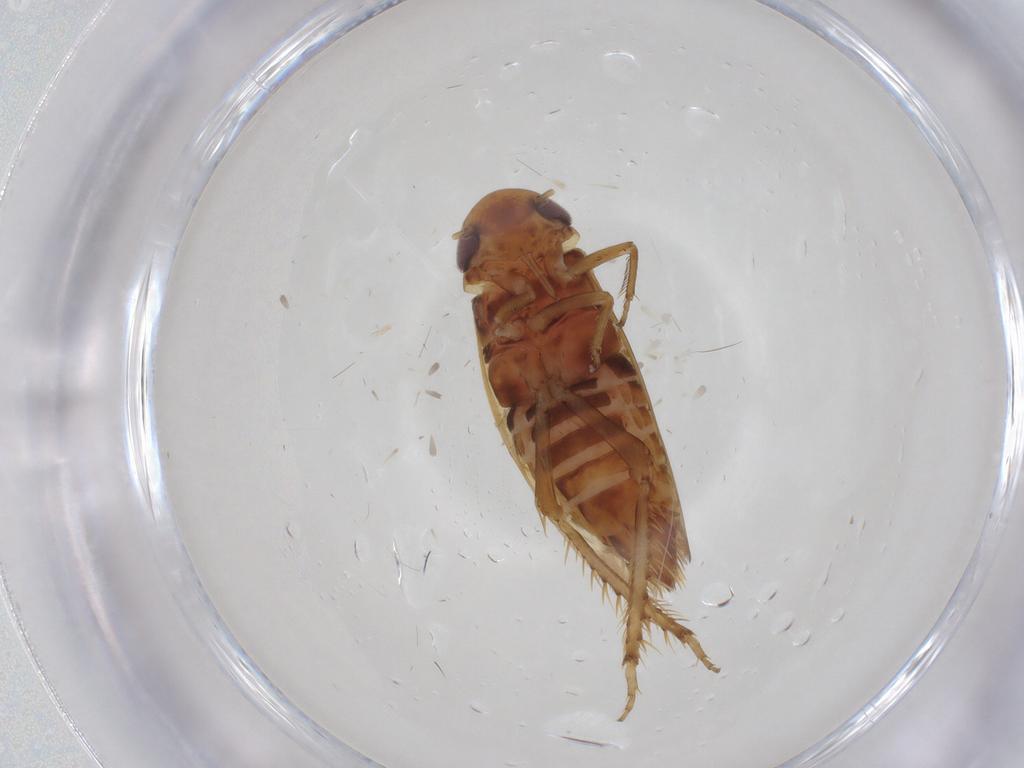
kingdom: Animalia
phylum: Arthropoda
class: Insecta
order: Hemiptera
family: Cicadellidae
